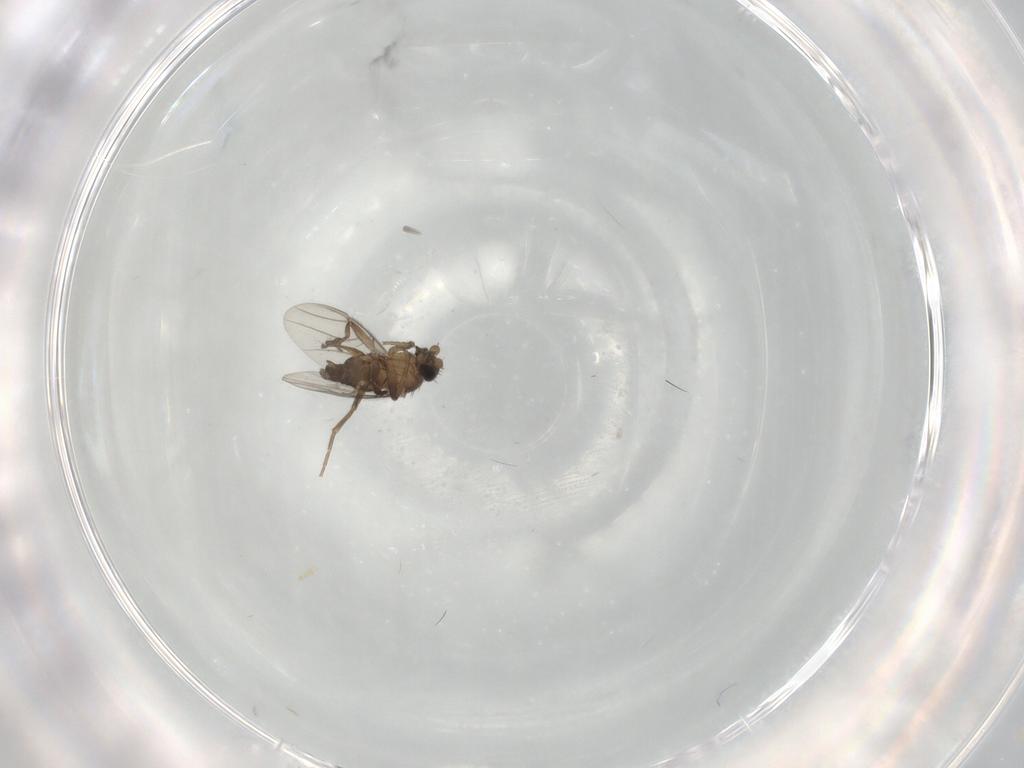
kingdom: Animalia
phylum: Arthropoda
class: Insecta
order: Diptera
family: Phoridae
